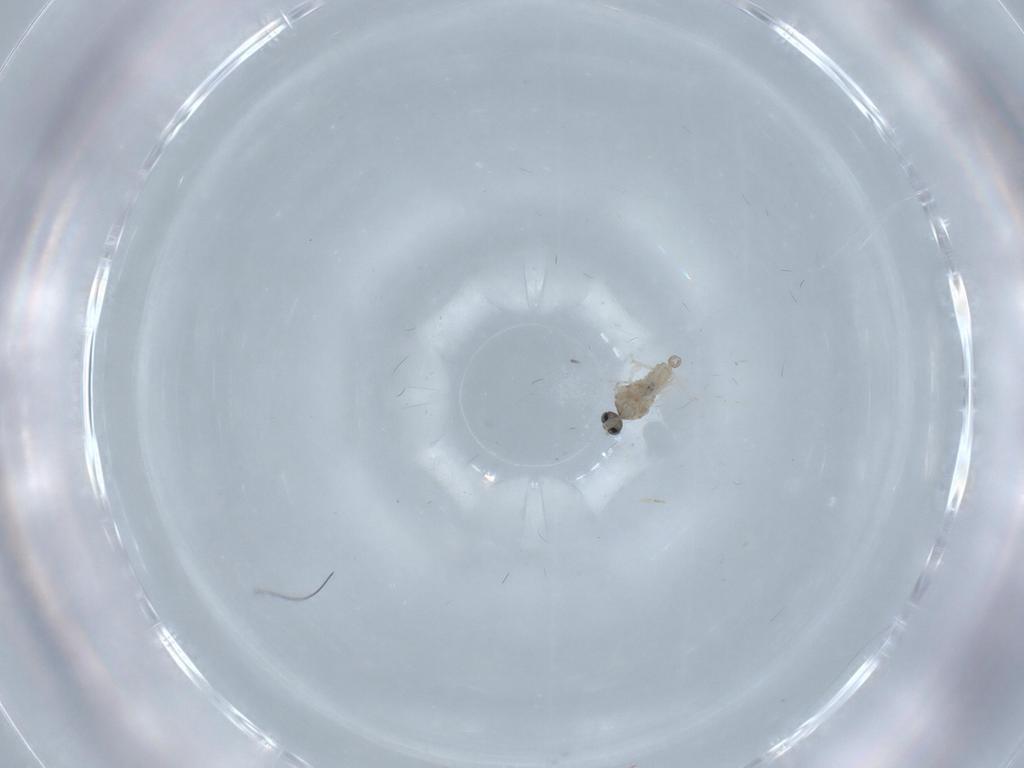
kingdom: Animalia
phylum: Arthropoda
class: Insecta
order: Diptera
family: Cecidomyiidae
